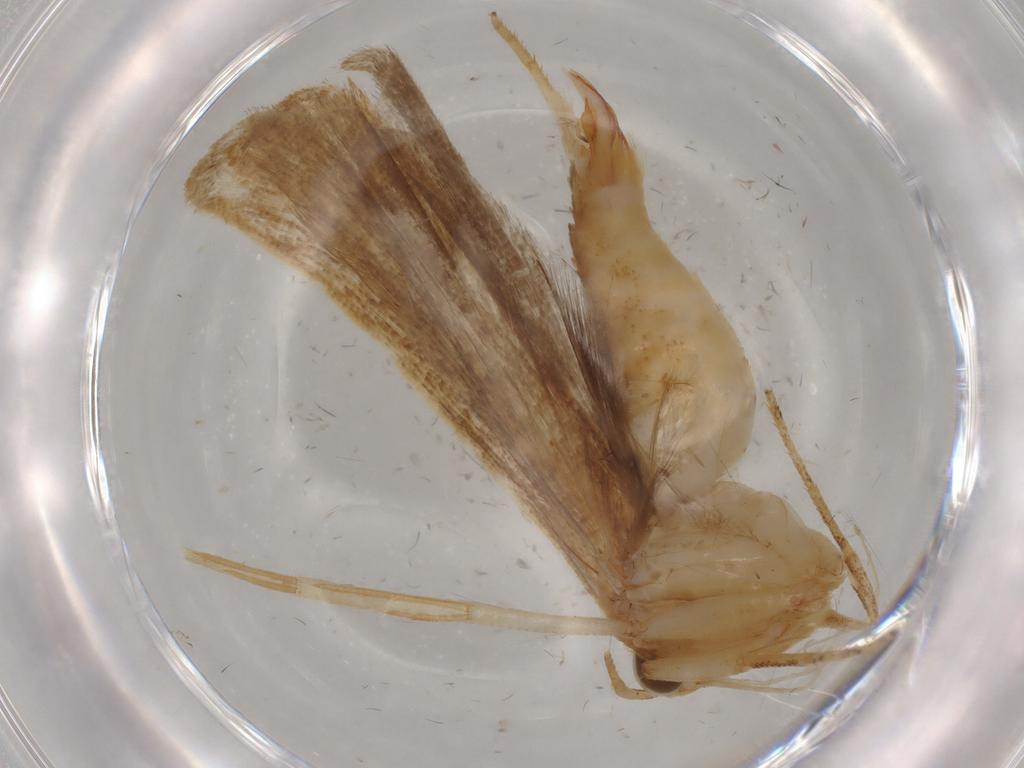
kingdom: Animalia
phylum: Arthropoda
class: Insecta
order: Lepidoptera
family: Gelechiidae
